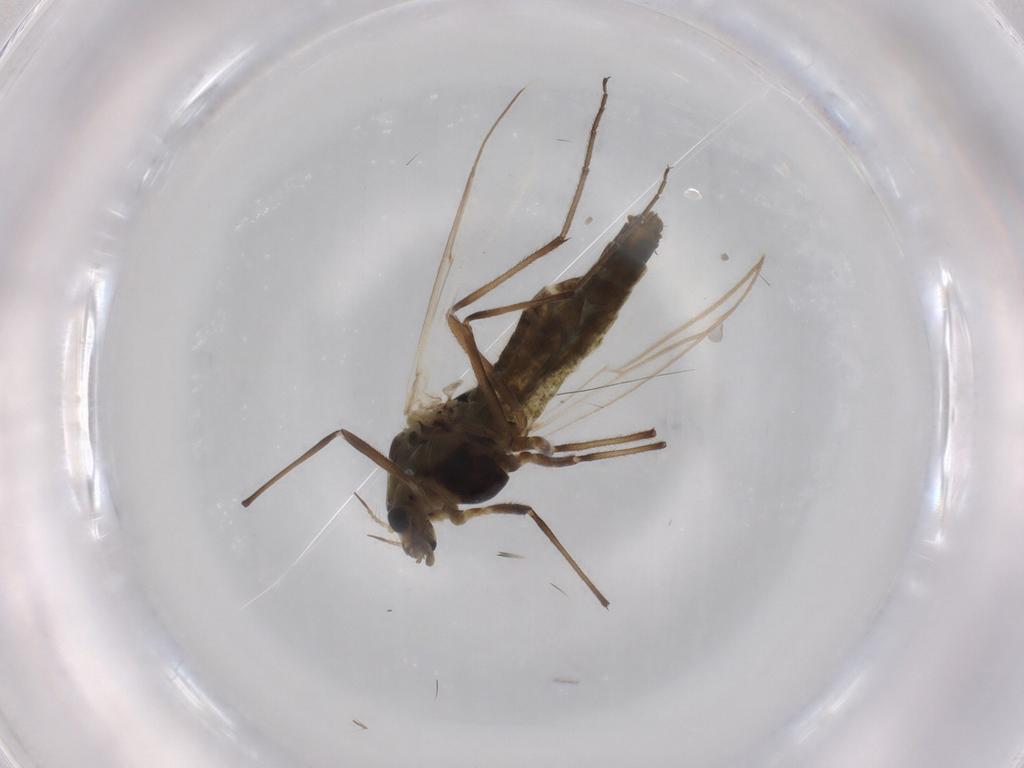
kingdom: Animalia
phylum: Arthropoda
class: Insecta
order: Diptera
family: Chironomidae
